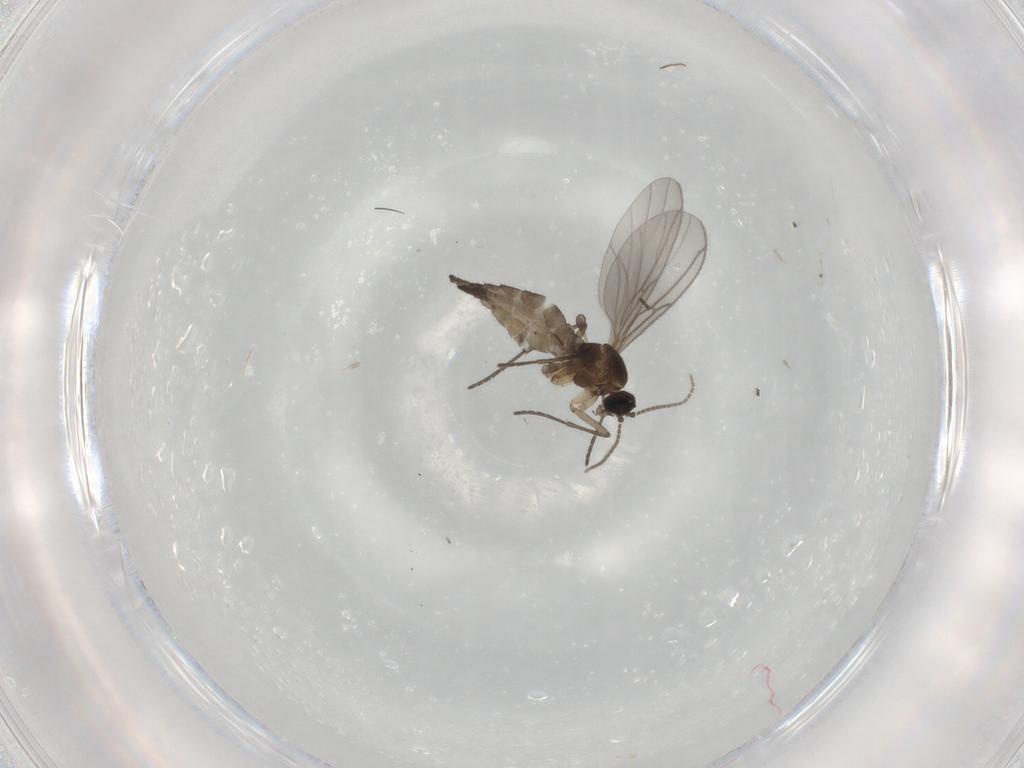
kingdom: Animalia
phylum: Arthropoda
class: Insecta
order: Diptera
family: Sciaridae
